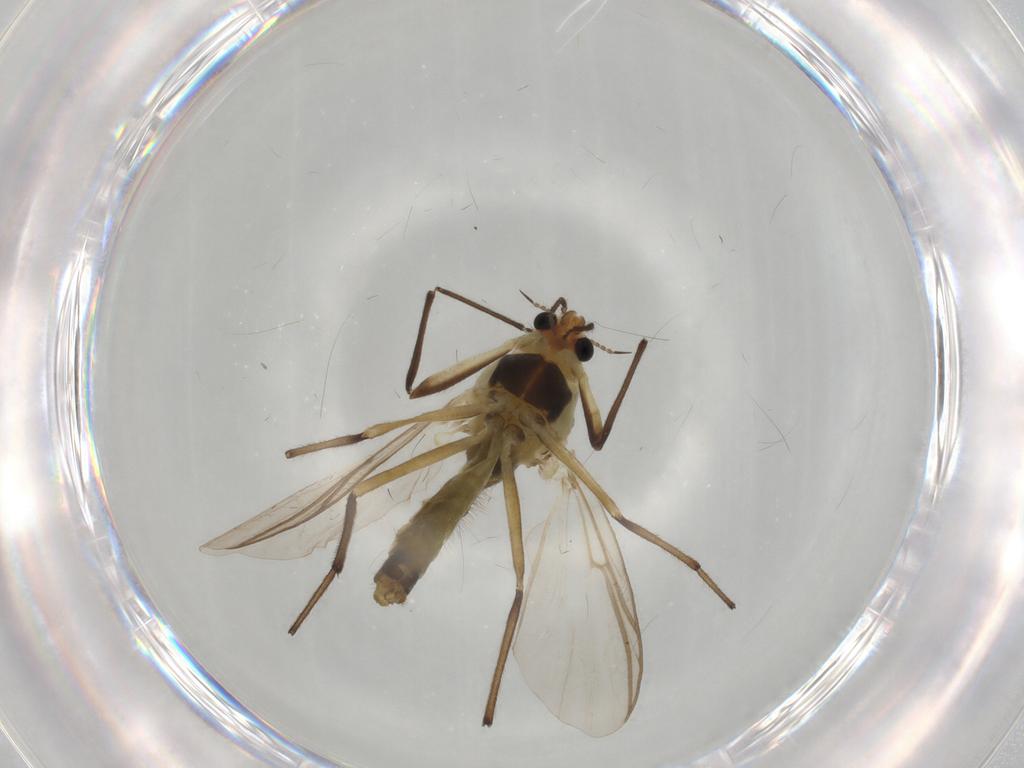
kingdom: Animalia
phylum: Arthropoda
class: Insecta
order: Diptera
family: Chironomidae
